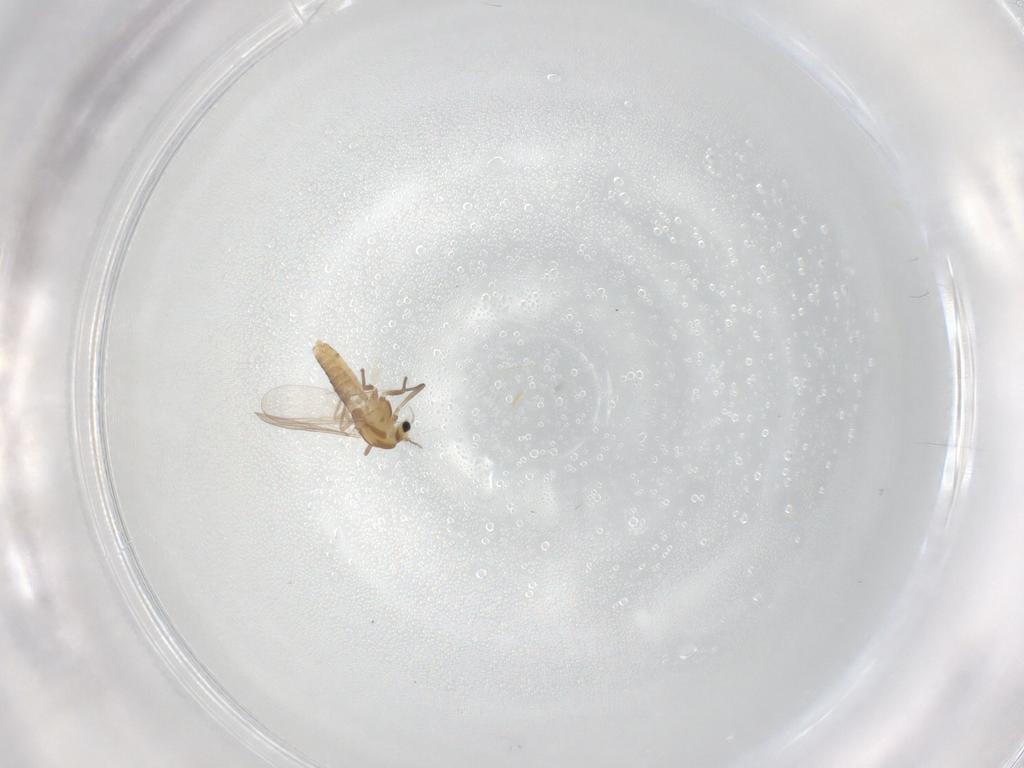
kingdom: Animalia
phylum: Arthropoda
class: Insecta
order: Diptera
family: Chironomidae
